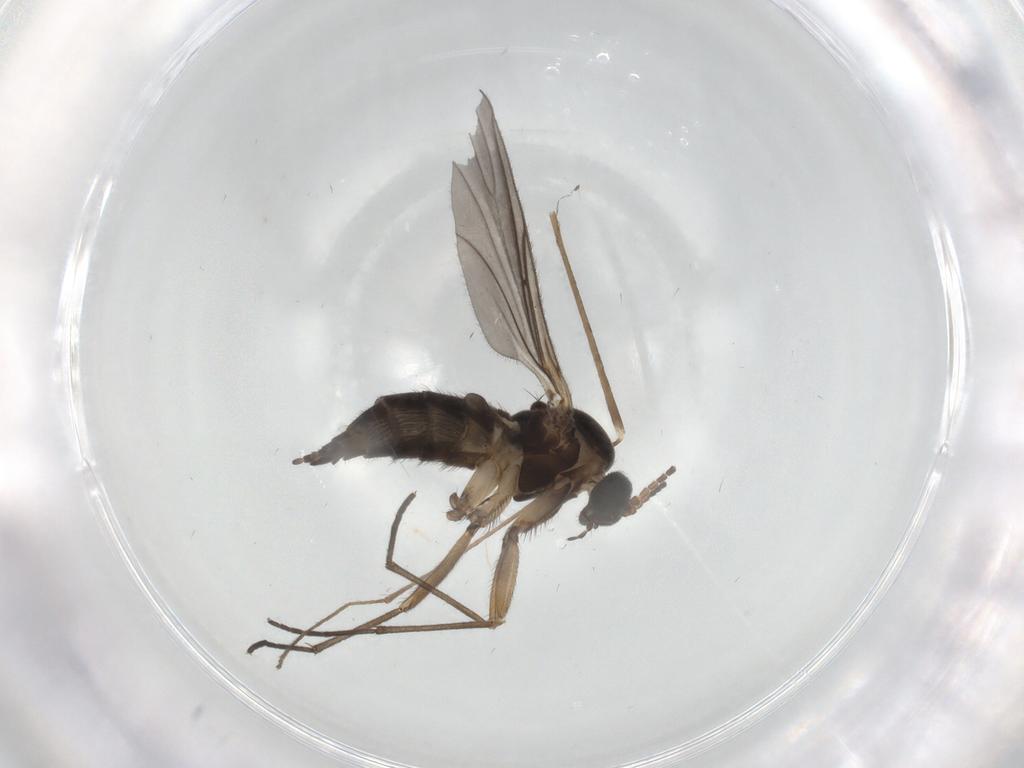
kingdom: Animalia
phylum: Arthropoda
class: Insecta
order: Diptera
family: Sciaridae
